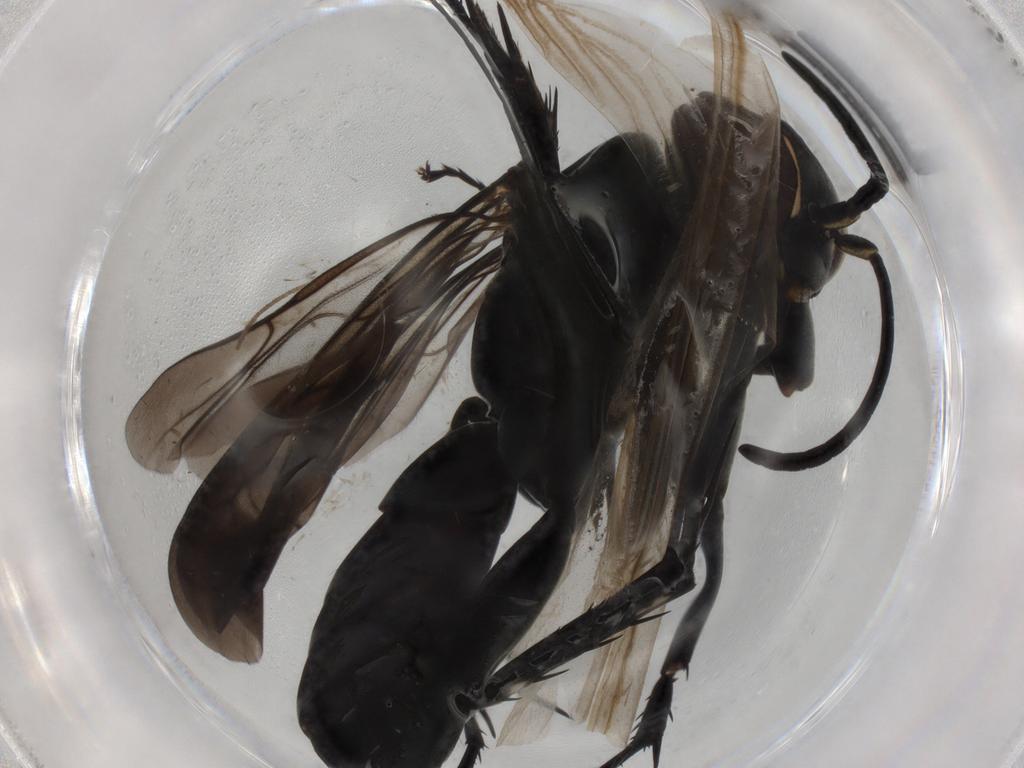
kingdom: Animalia
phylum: Arthropoda
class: Insecta
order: Hymenoptera
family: Pompilidae
